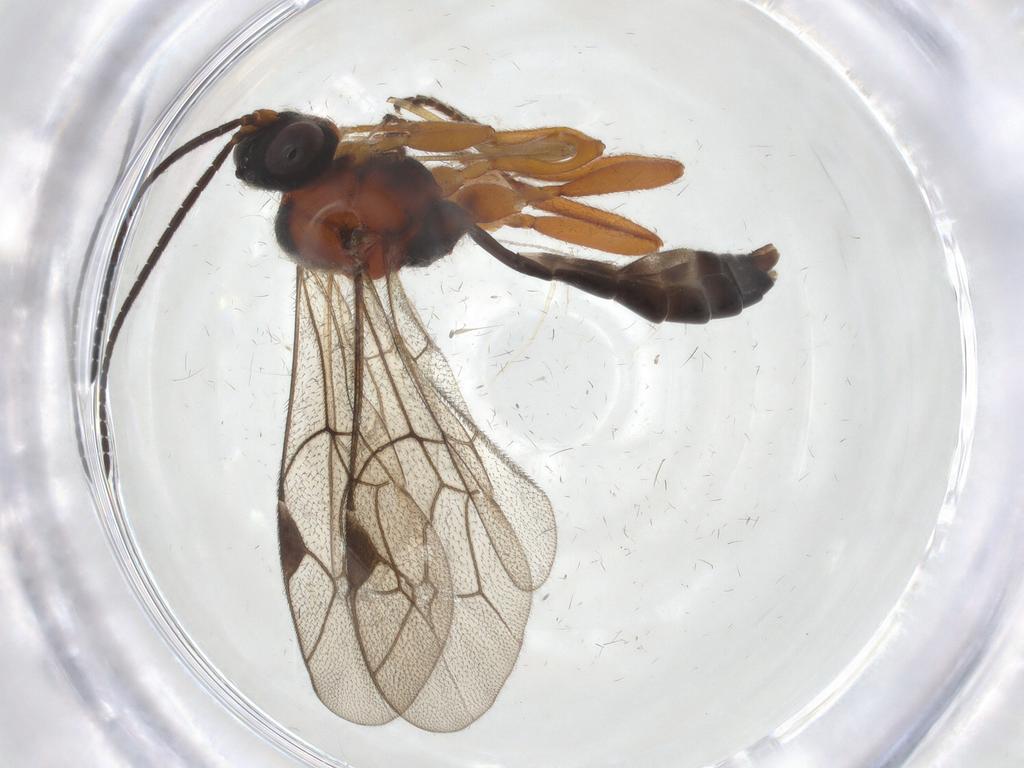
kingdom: Animalia
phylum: Arthropoda
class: Insecta
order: Hymenoptera
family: Ichneumonidae
